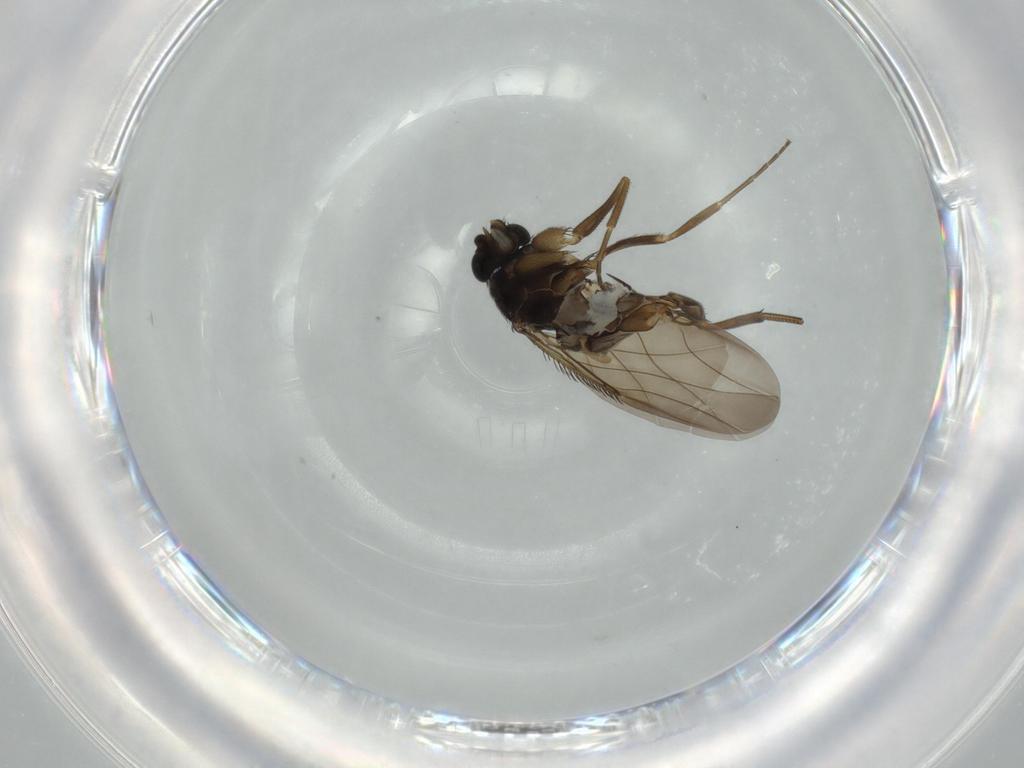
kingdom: Animalia
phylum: Arthropoda
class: Insecta
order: Diptera
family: Phoridae
